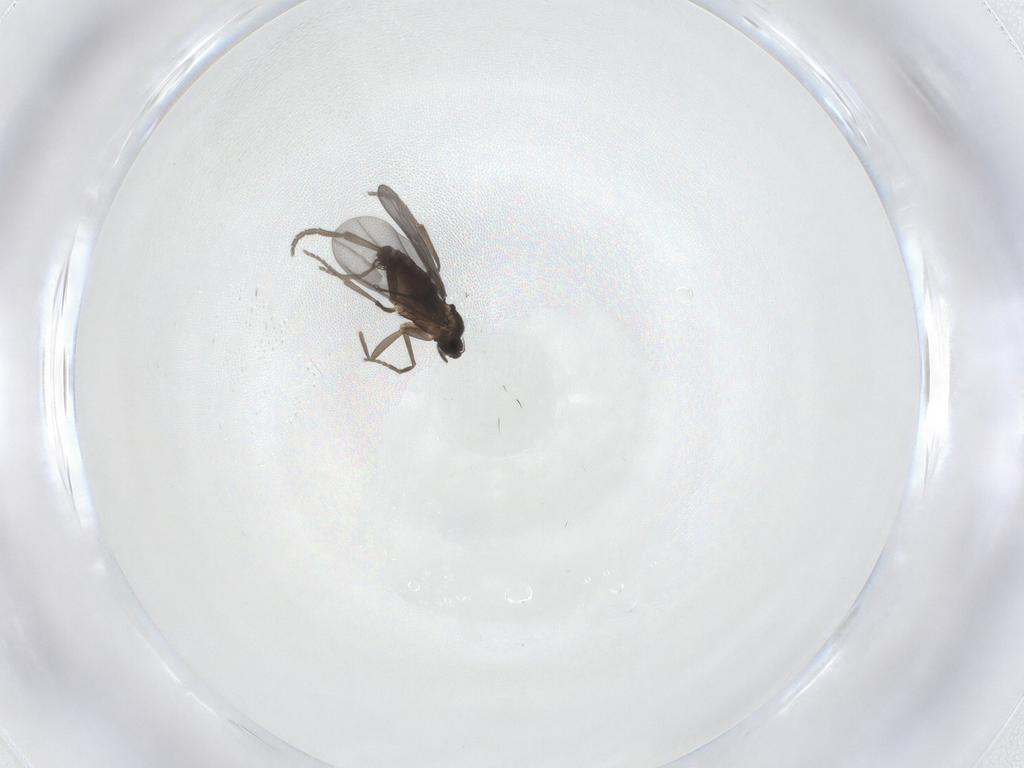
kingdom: Animalia
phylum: Arthropoda
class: Insecta
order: Diptera
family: Phoridae
